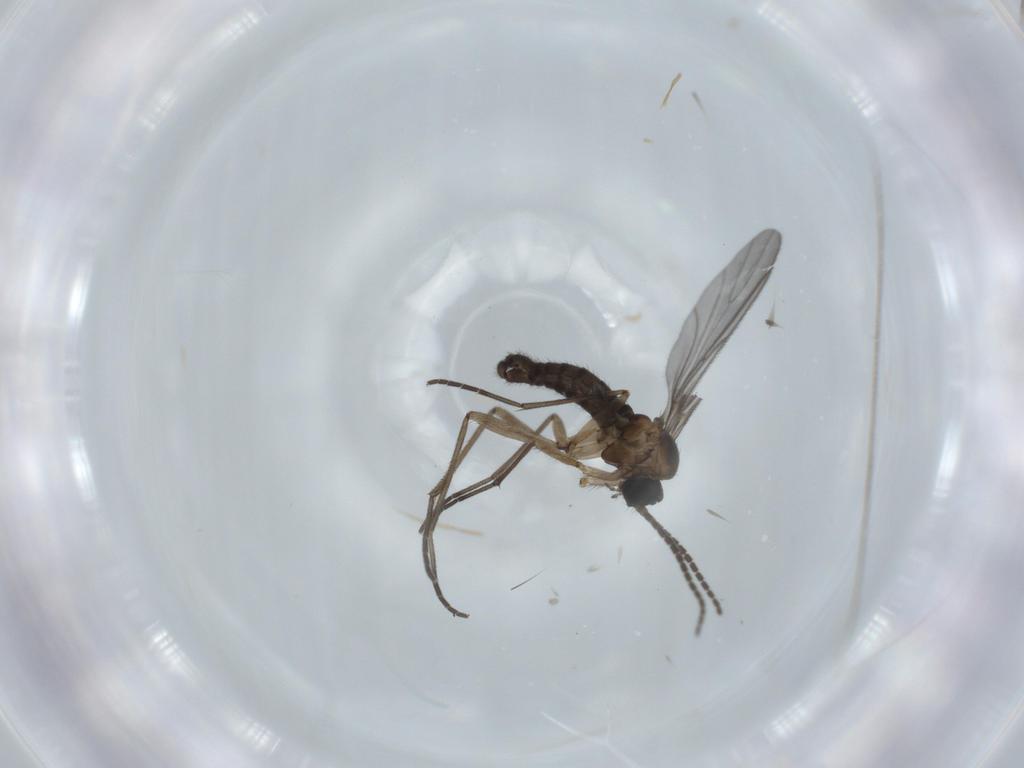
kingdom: Animalia
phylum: Arthropoda
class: Insecta
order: Diptera
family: Sciaridae
